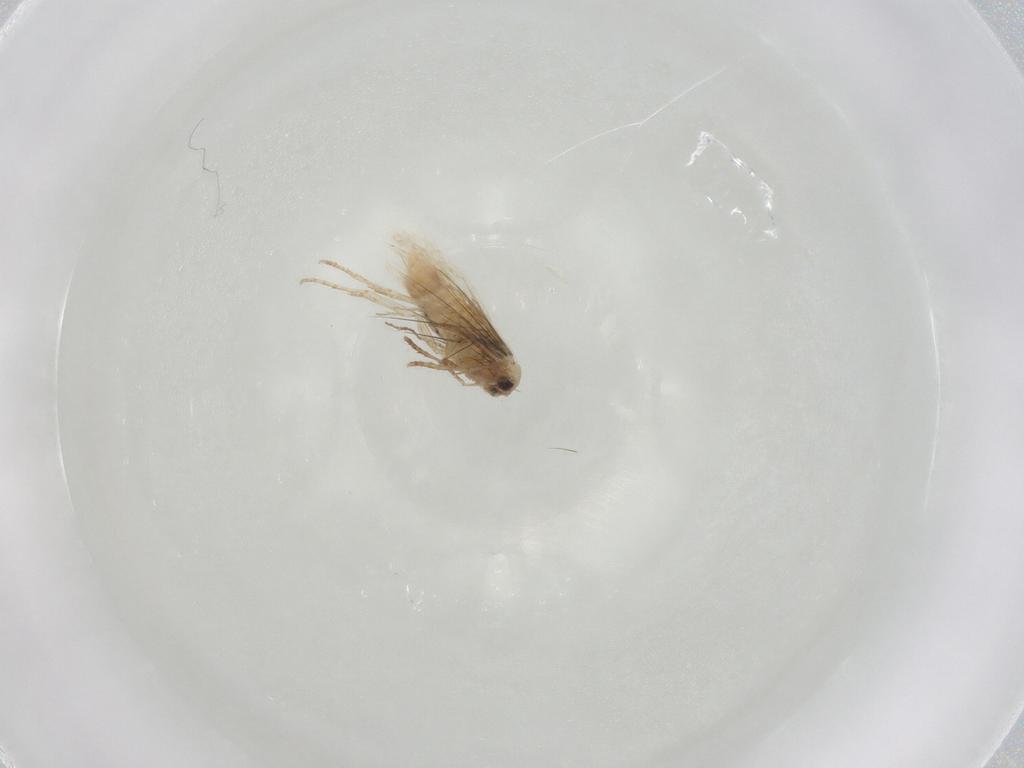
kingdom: Animalia
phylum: Arthropoda
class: Insecta
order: Lepidoptera
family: Bucculatricidae
